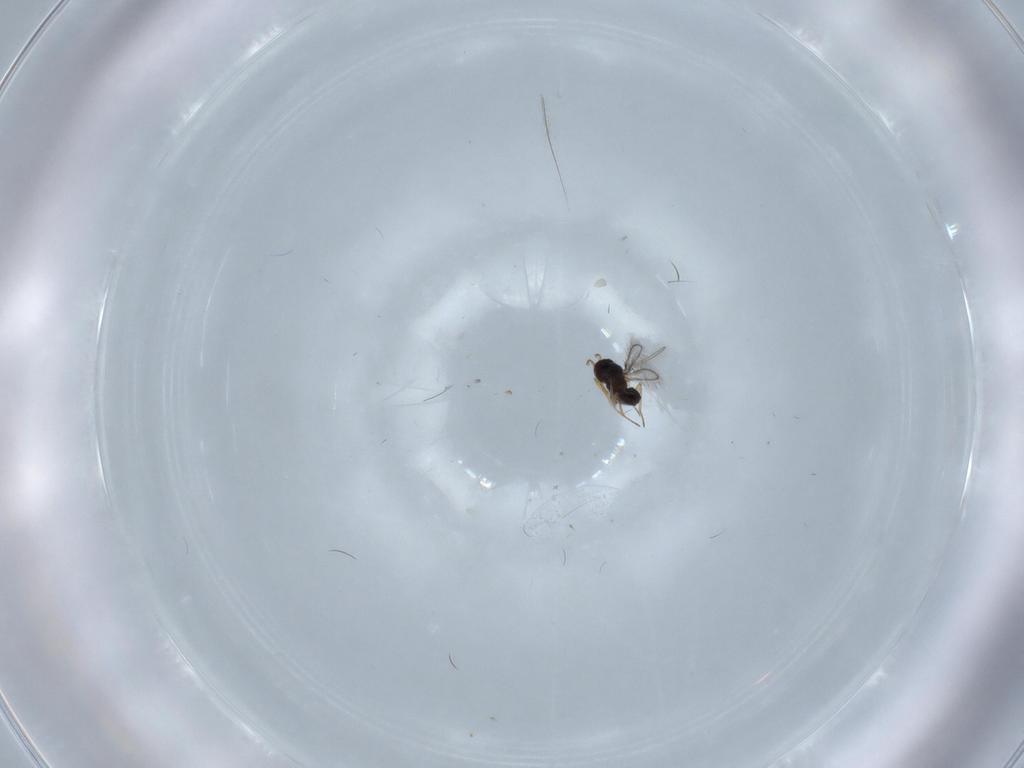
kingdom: Animalia
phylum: Arthropoda
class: Insecta
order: Hymenoptera
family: Apidae
